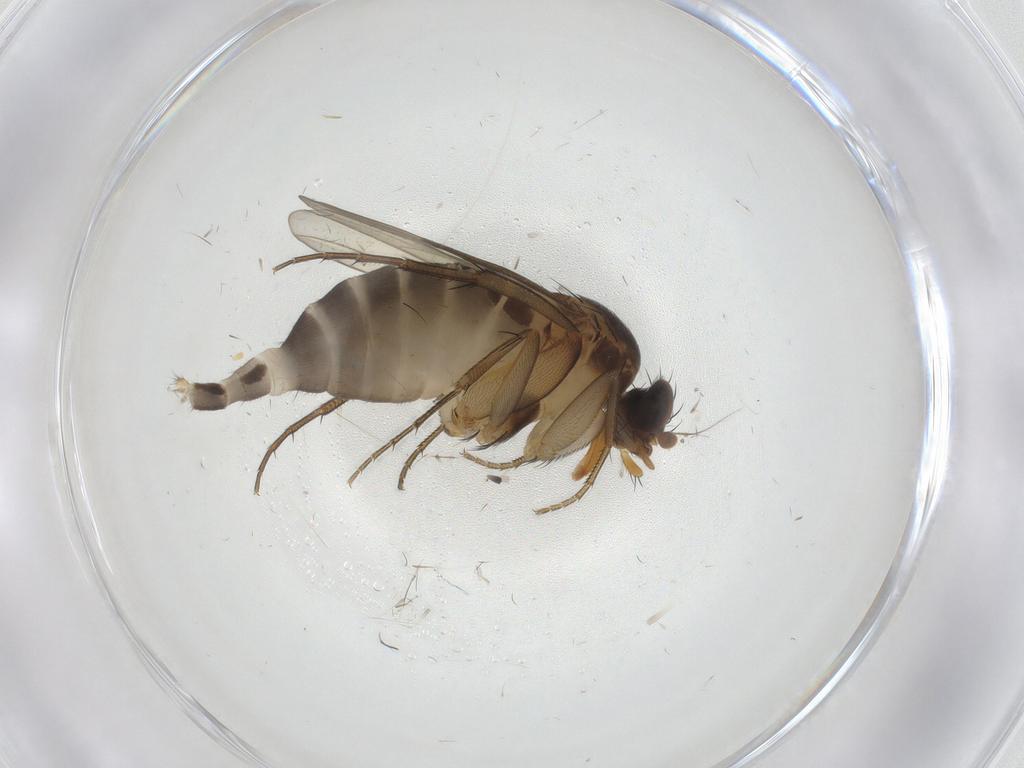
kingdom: Animalia
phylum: Arthropoda
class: Insecta
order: Diptera
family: Phoridae
